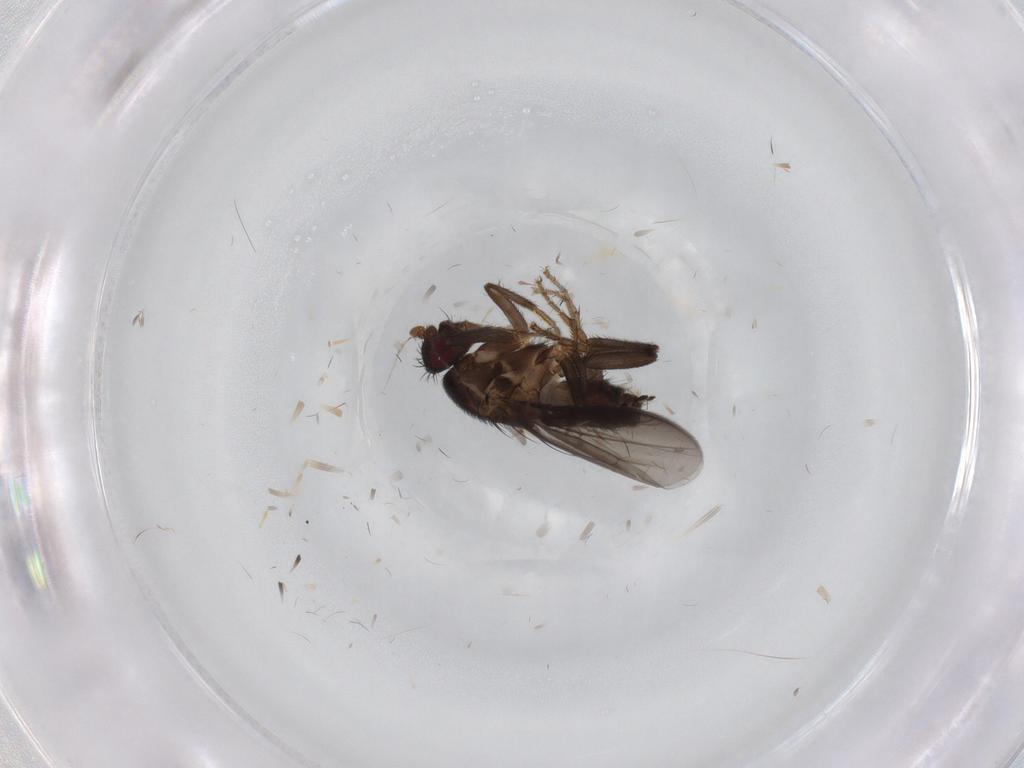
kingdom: Animalia
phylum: Arthropoda
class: Insecta
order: Diptera
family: Sphaeroceridae
